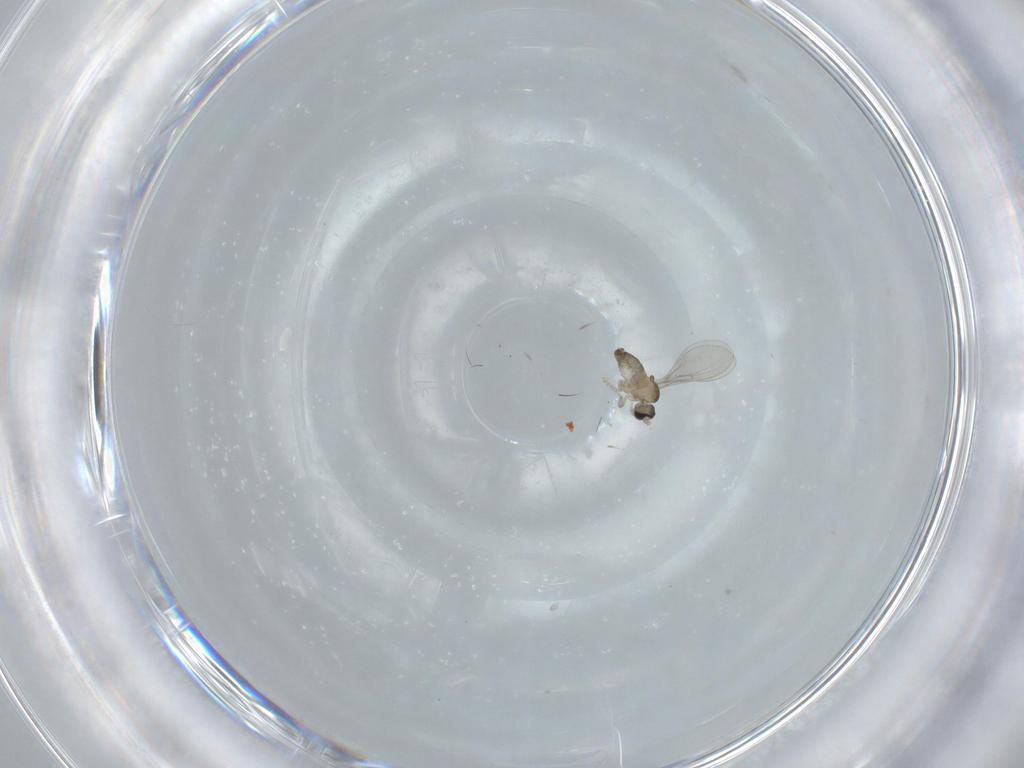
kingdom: Animalia
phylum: Arthropoda
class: Insecta
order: Diptera
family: Cecidomyiidae
